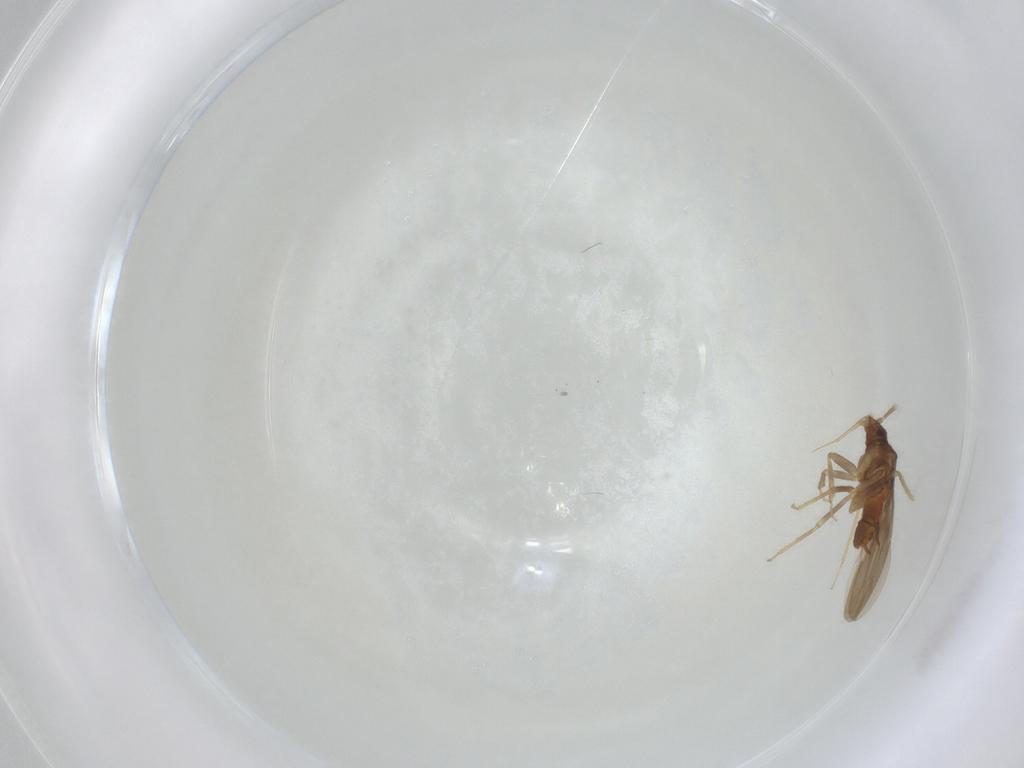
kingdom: Animalia
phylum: Arthropoda
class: Insecta
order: Hemiptera
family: Ceratocombidae
